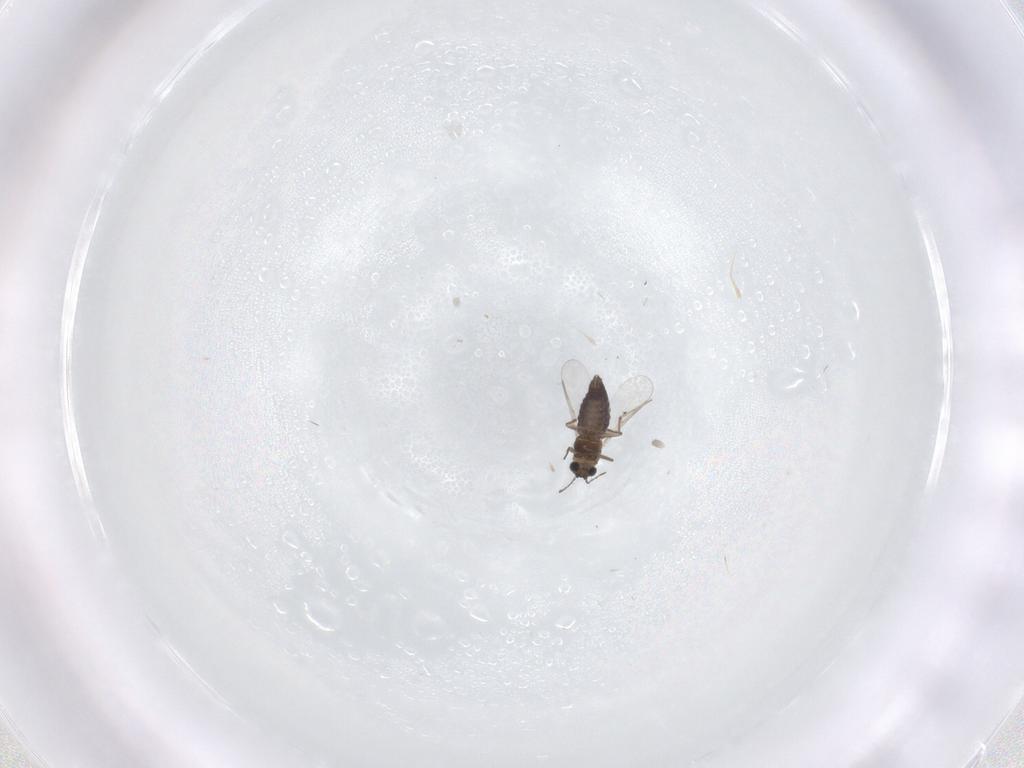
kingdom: Animalia
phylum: Arthropoda
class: Insecta
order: Diptera
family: Chironomidae
